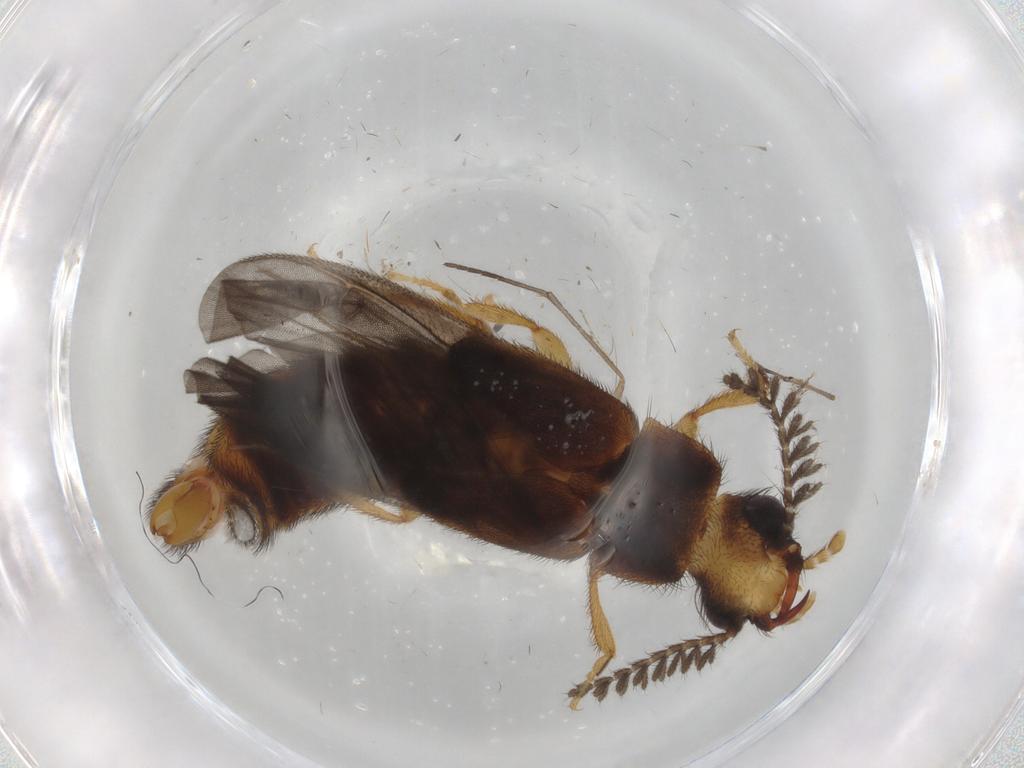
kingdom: Animalia
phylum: Arthropoda
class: Insecta
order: Coleoptera
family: Phengodidae
